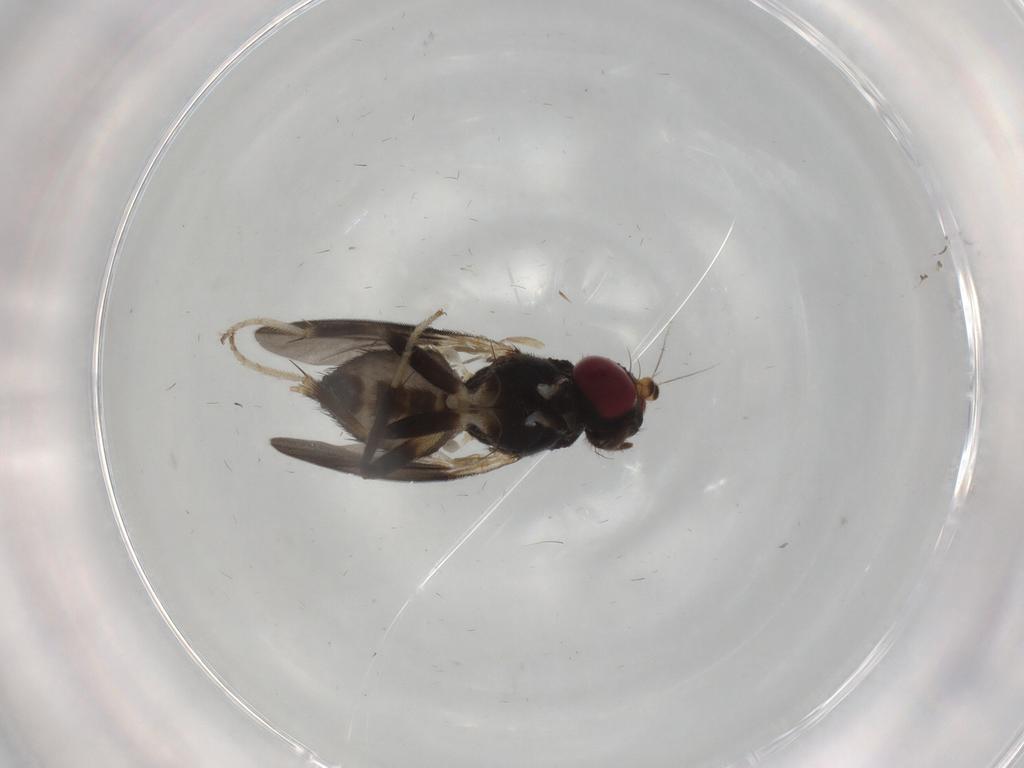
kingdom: Animalia
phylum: Arthropoda
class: Insecta
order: Diptera
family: Clusiidae
